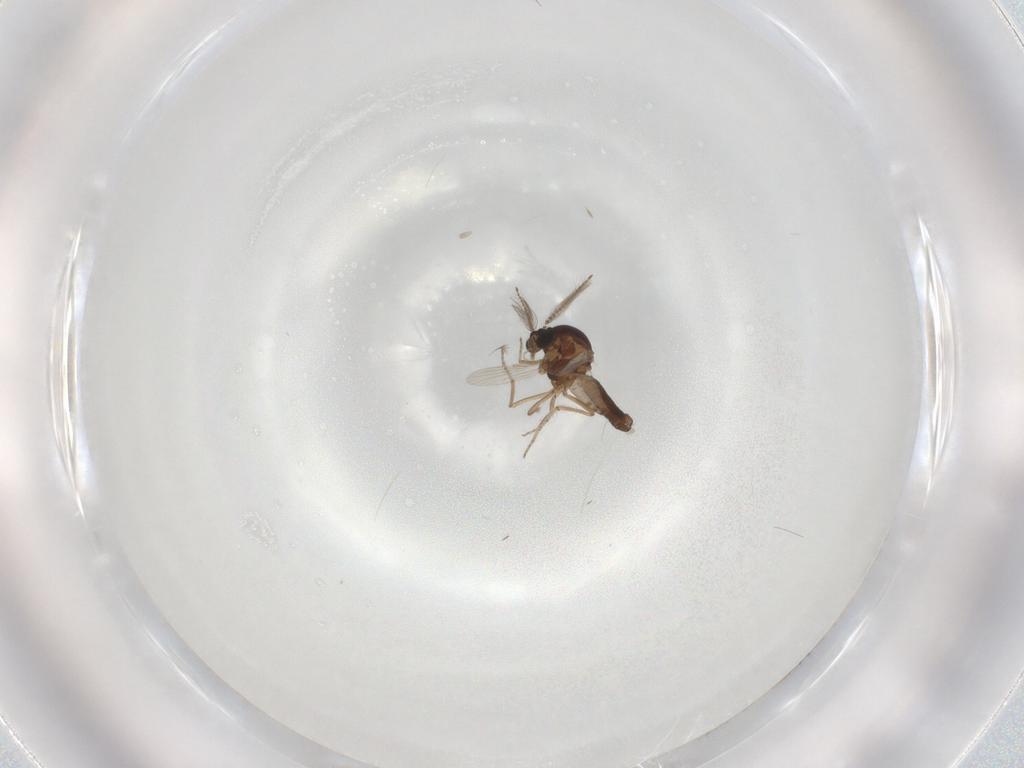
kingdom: Animalia
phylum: Arthropoda
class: Insecta
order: Diptera
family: Ceratopogonidae
